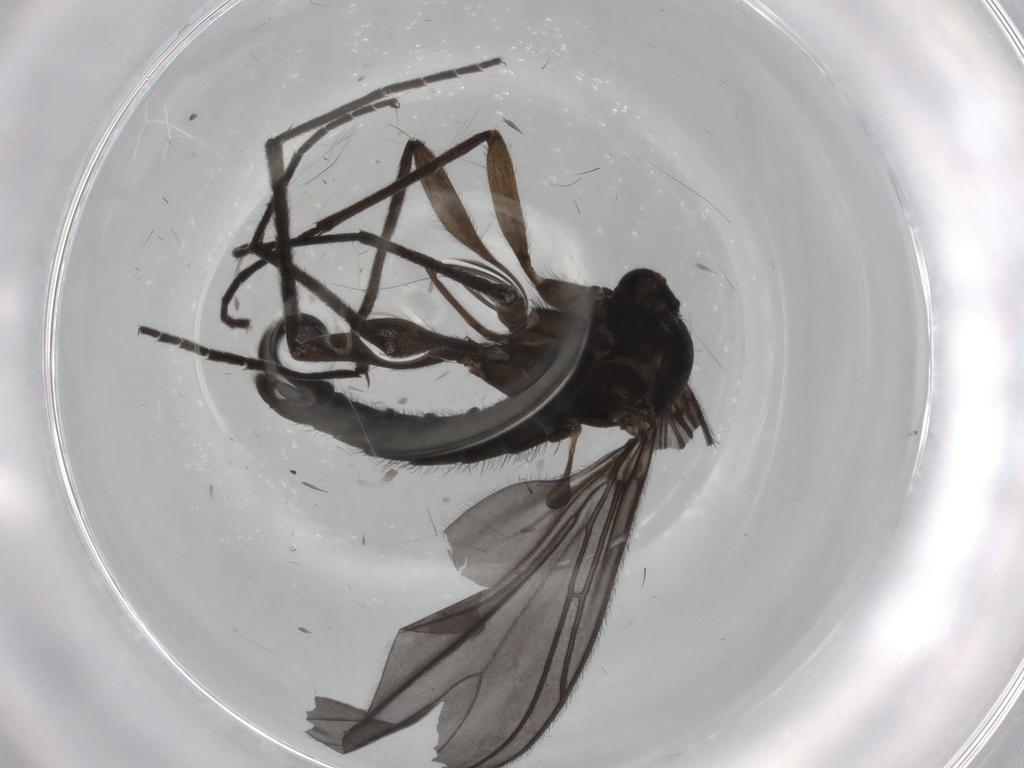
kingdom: Animalia
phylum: Arthropoda
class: Insecta
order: Diptera
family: Sciaridae
